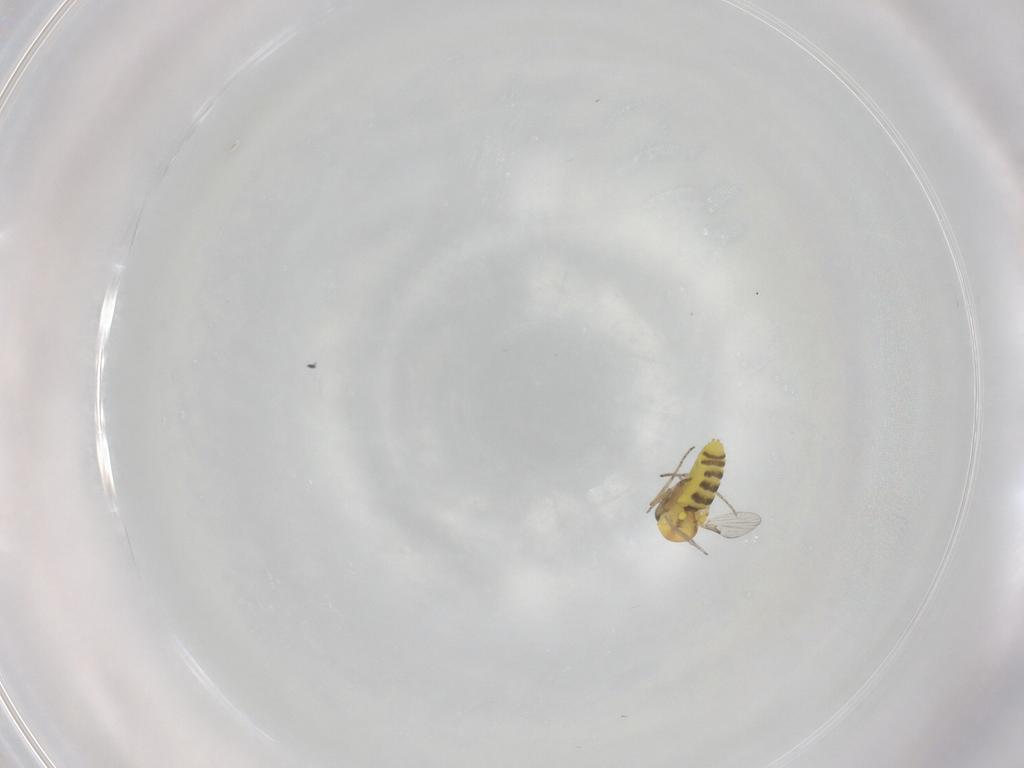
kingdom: Animalia
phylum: Arthropoda
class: Insecta
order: Diptera
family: Ceratopogonidae
